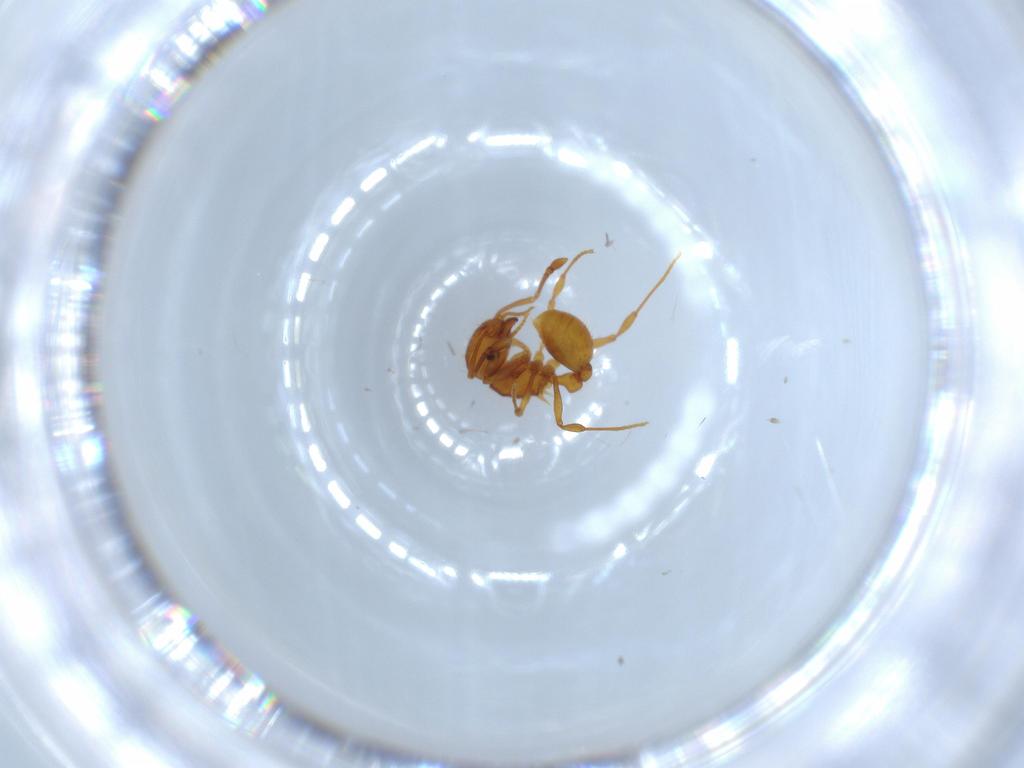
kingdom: Animalia
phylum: Arthropoda
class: Insecta
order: Hymenoptera
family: Formicidae
